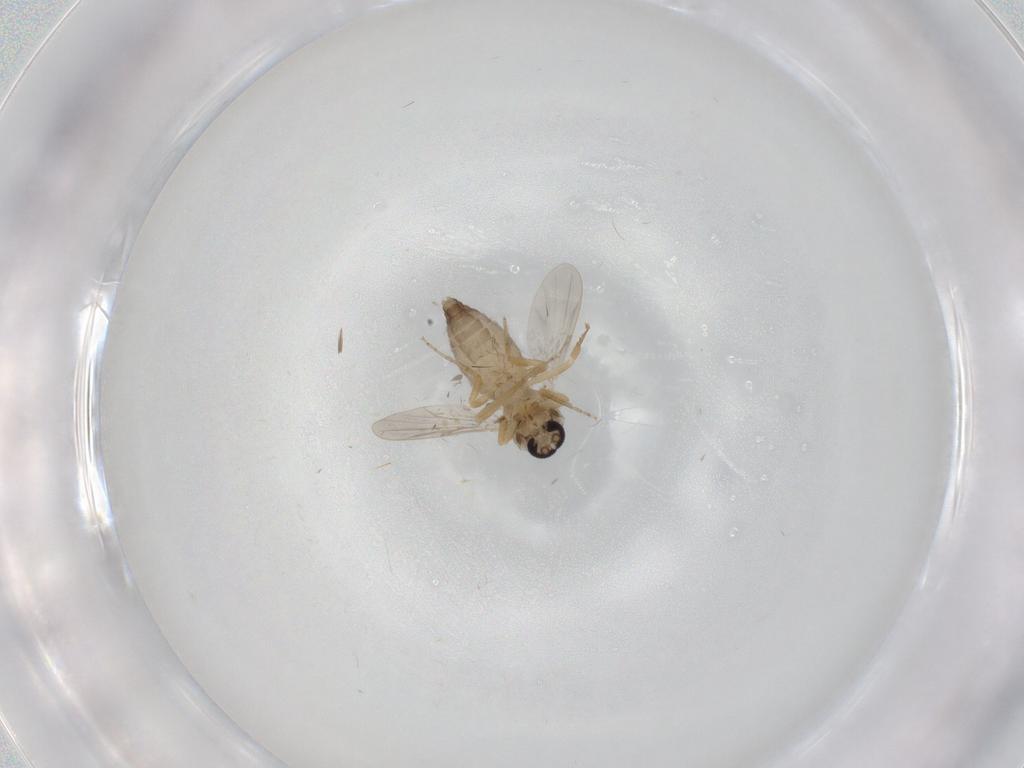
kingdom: Animalia
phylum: Arthropoda
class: Insecta
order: Diptera
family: Ceratopogonidae
